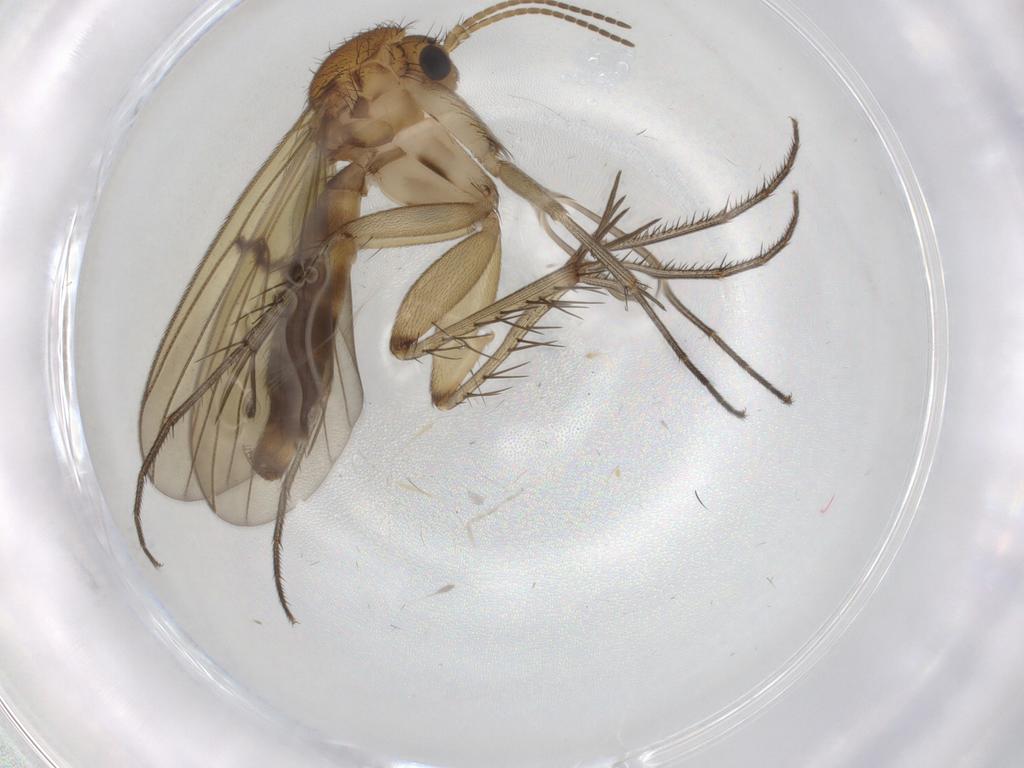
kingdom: Animalia
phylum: Arthropoda
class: Insecta
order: Diptera
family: Mycetophilidae
